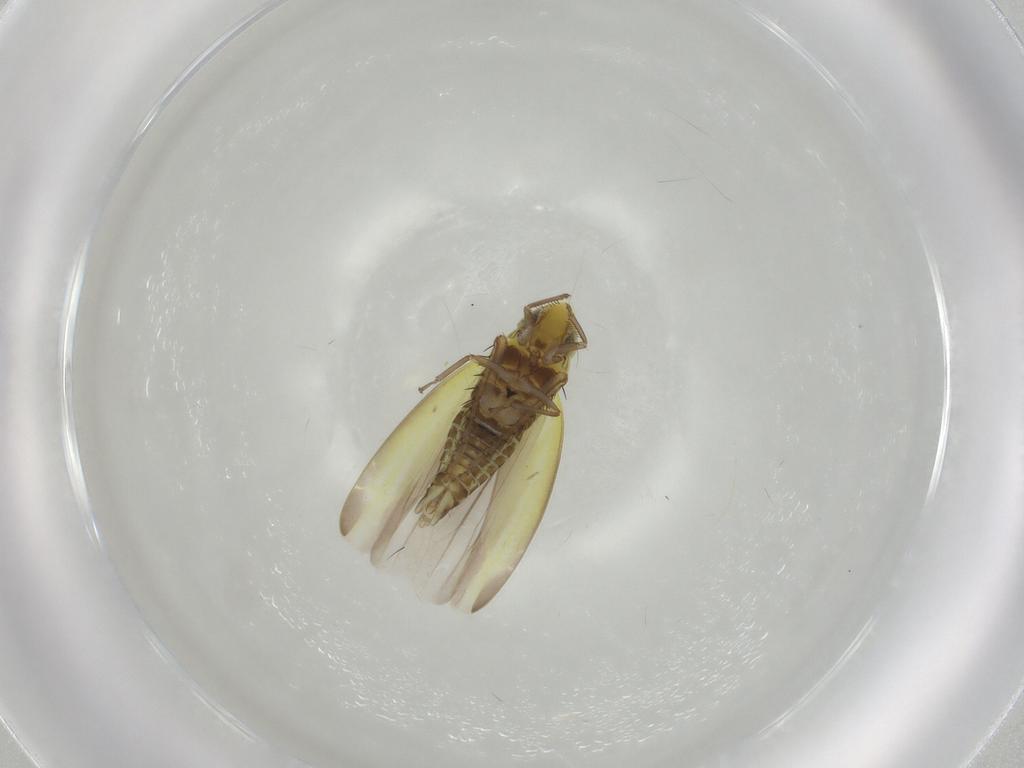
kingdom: Animalia
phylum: Arthropoda
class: Insecta
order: Hemiptera
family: Cicadellidae
